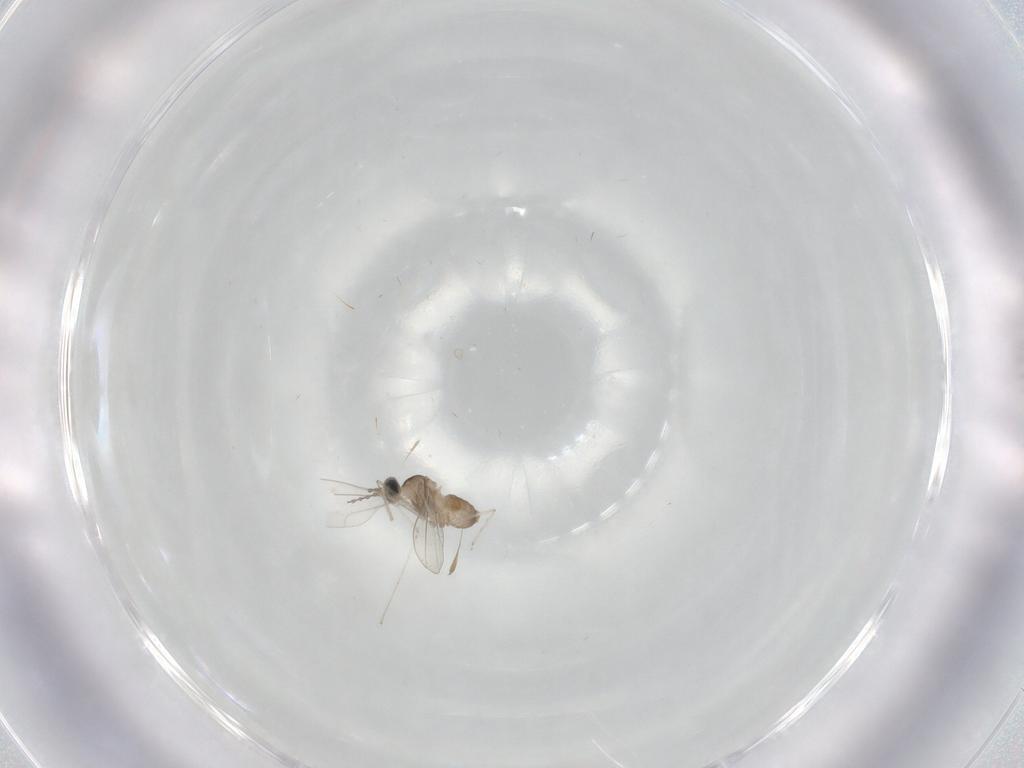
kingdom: Animalia
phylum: Arthropoda
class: Insecta
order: Diptera
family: Cecidomyiidae
